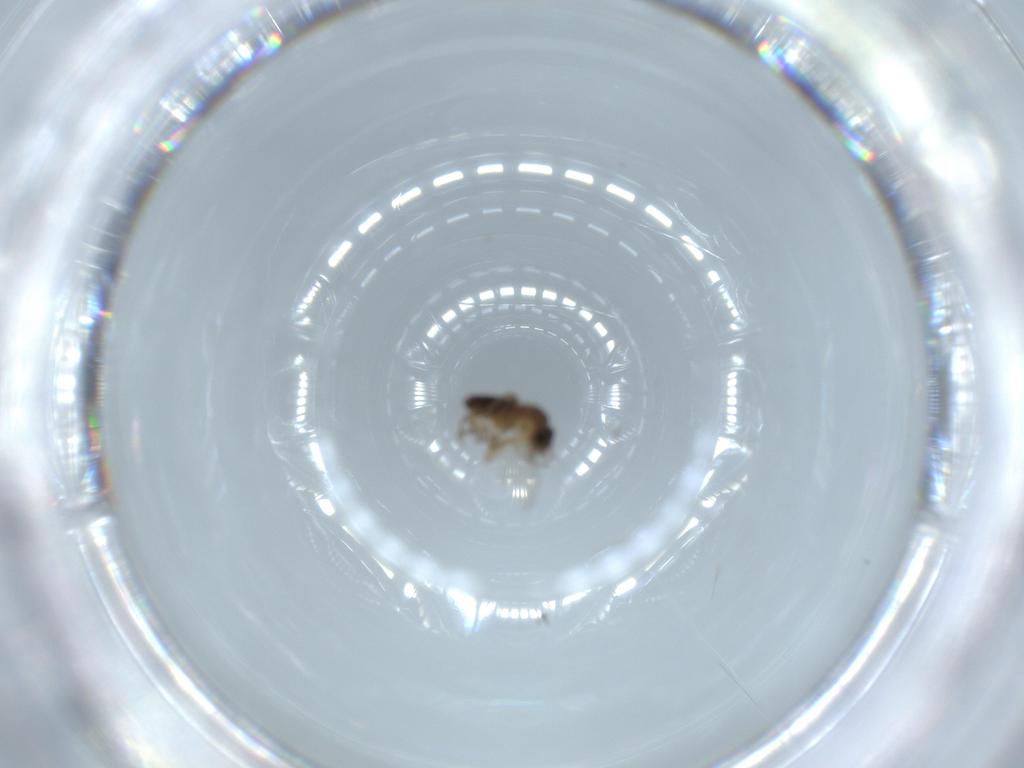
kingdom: Animalia
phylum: Arthropoda
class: Insecta
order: Diptera
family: Phoridae
